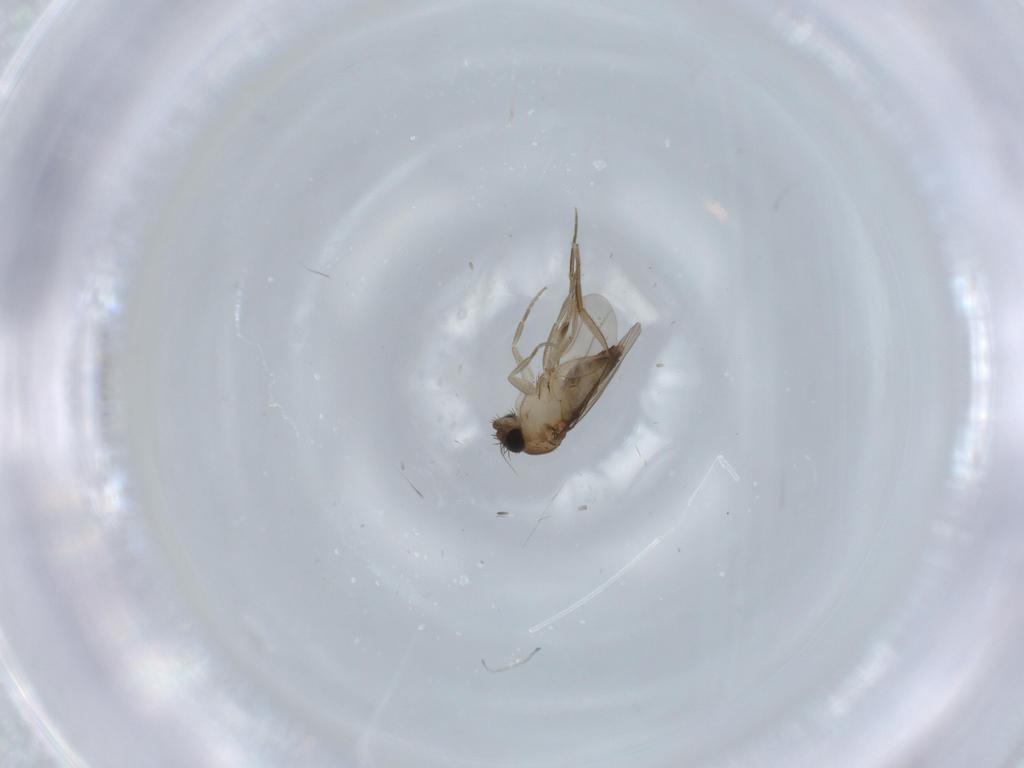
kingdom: Animalia
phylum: Arthropoda
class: Insecta
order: Diptera
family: Phoridae
